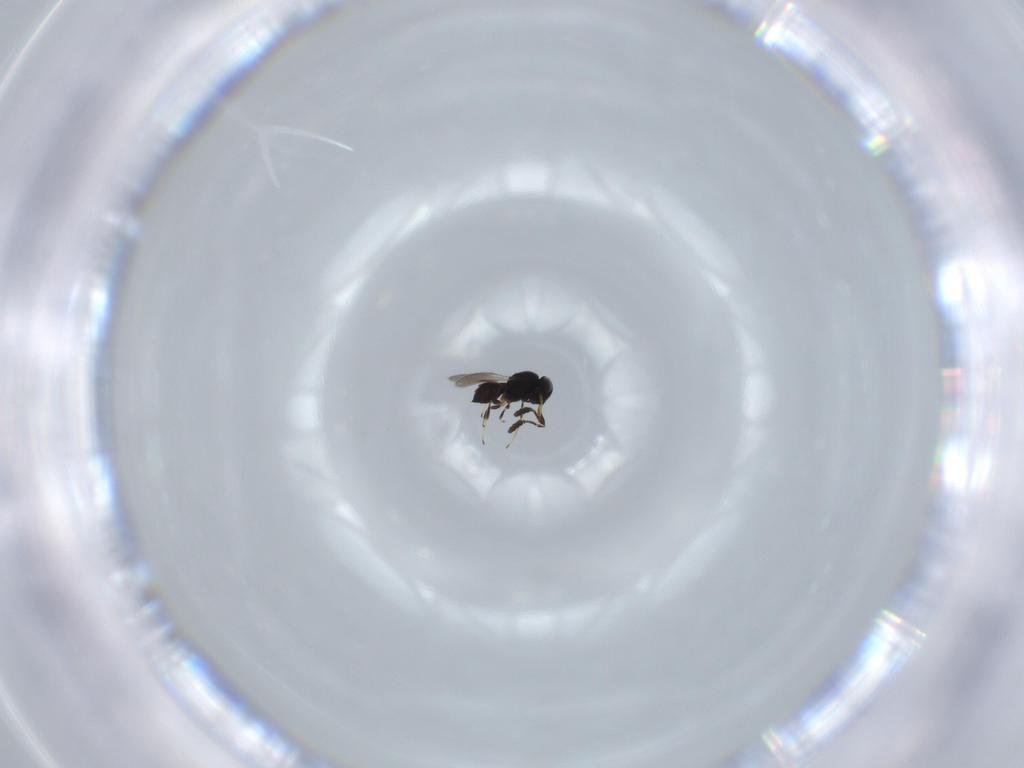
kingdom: Animalia
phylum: Arthropoda
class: Insecta
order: Hymenoptera
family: Scelionidae
